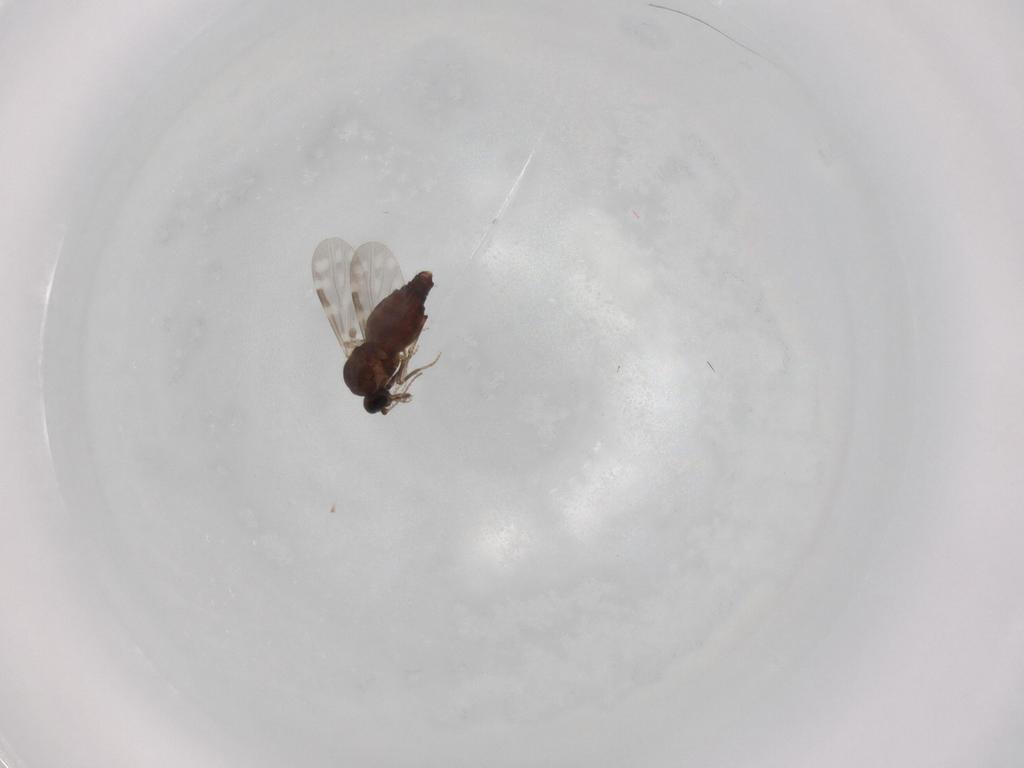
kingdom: Animalia
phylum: Arthropoda
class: Insecta
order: Diptera
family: Ceratopogonidae
